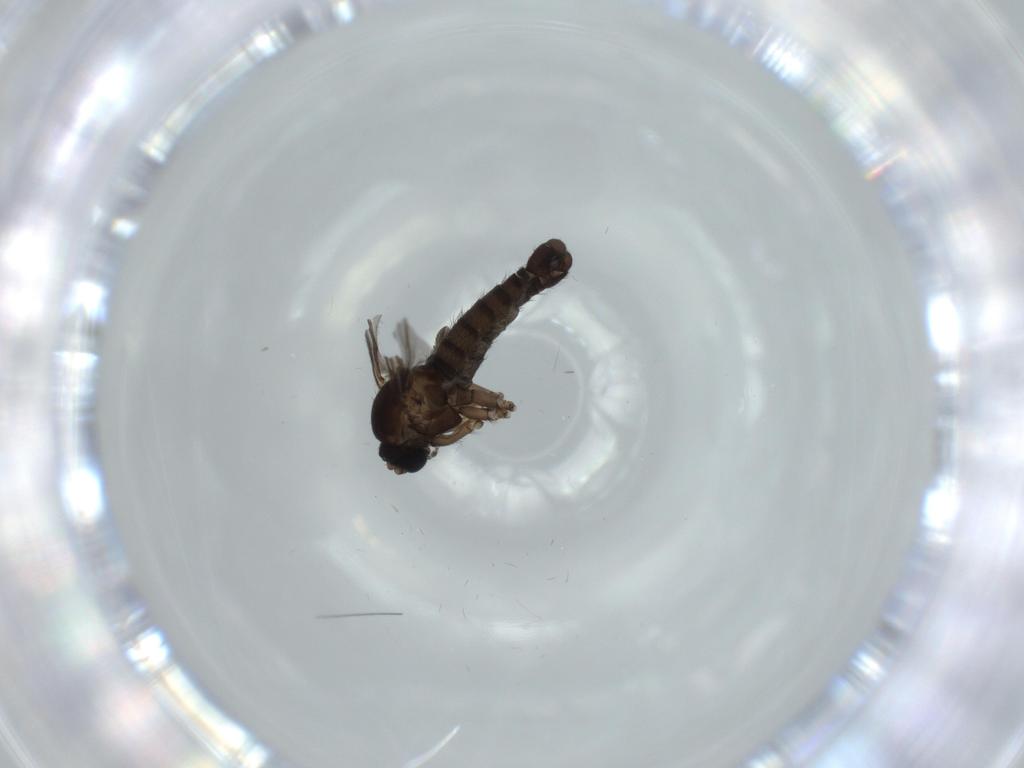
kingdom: Animalia
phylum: Arthropoda
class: Insecta
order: Diptera
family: Sciaridae
